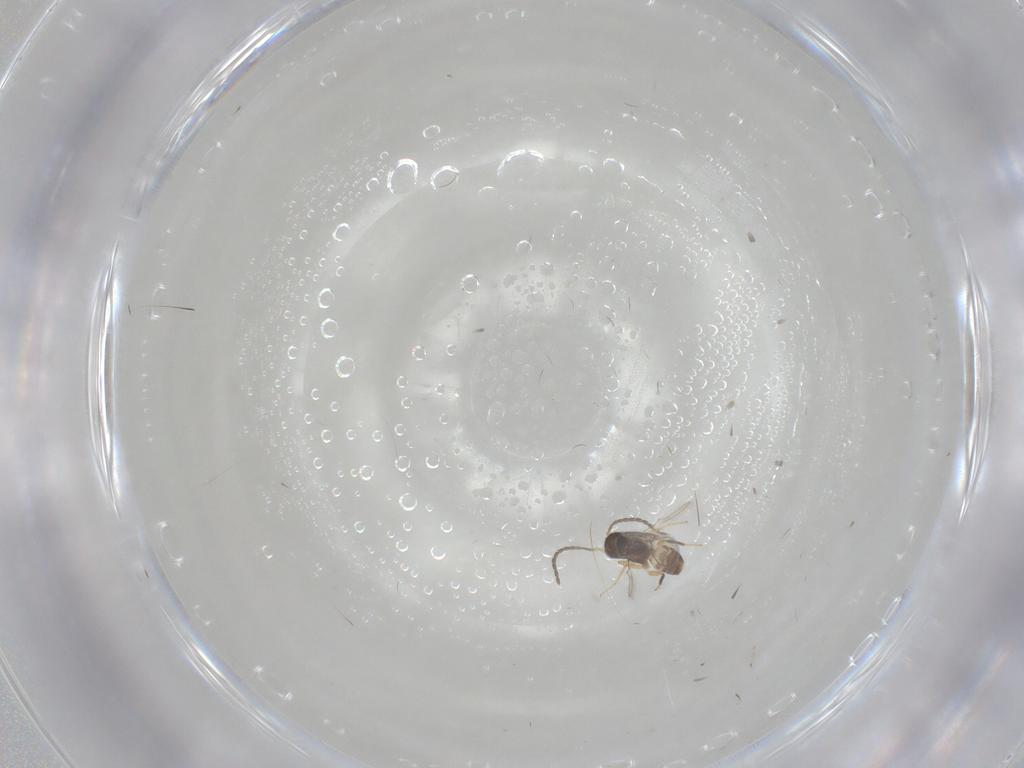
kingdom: Animalia
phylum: Arthropoda
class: Insecta
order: Hymenoptera
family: Mymaridae
